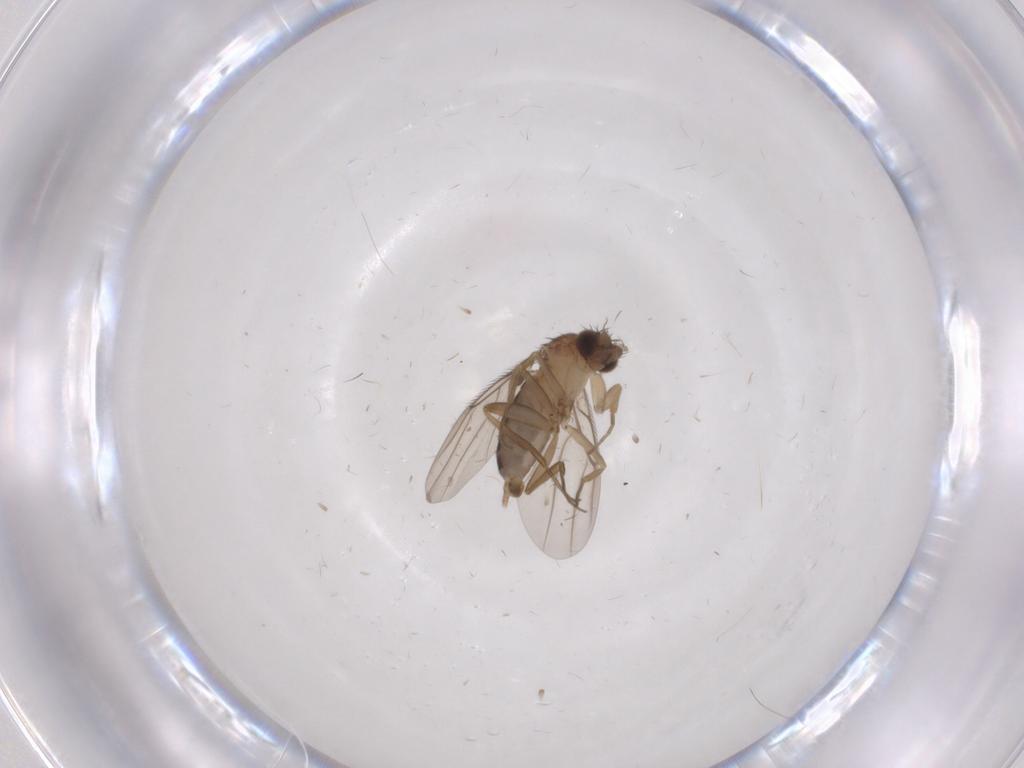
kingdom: Animalia
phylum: Arthropoda
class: Insecta
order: Diptera
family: Phoridae
